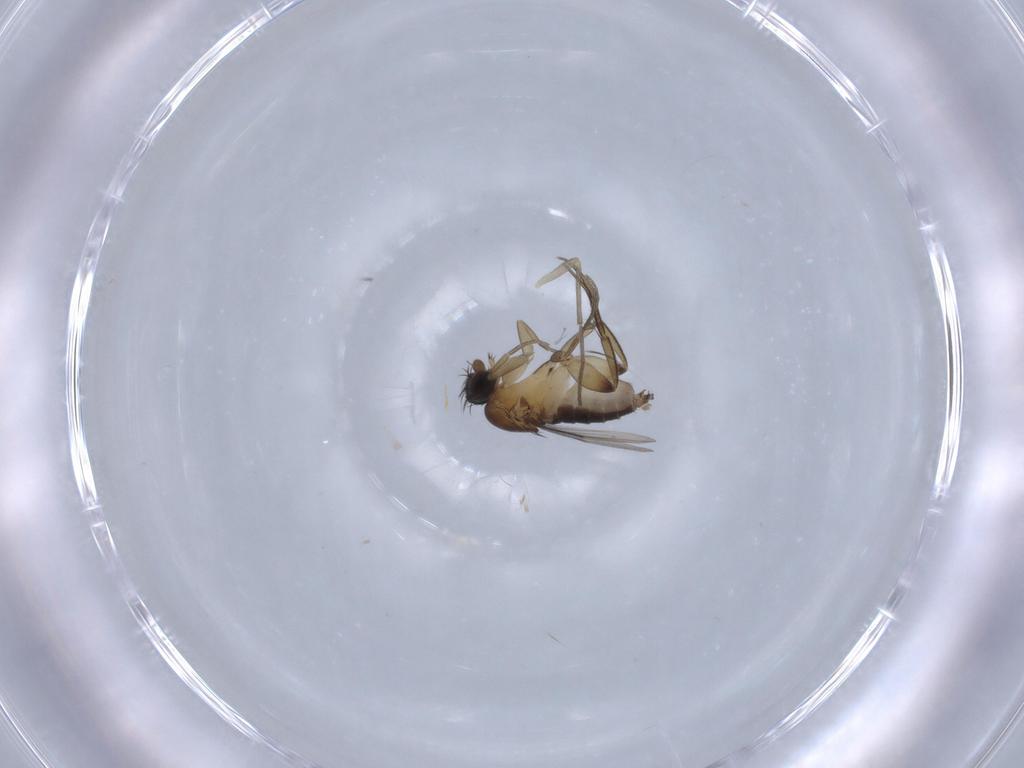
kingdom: Animalia
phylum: Arthropoda
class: Insecta
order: Diptera
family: Phoridae
